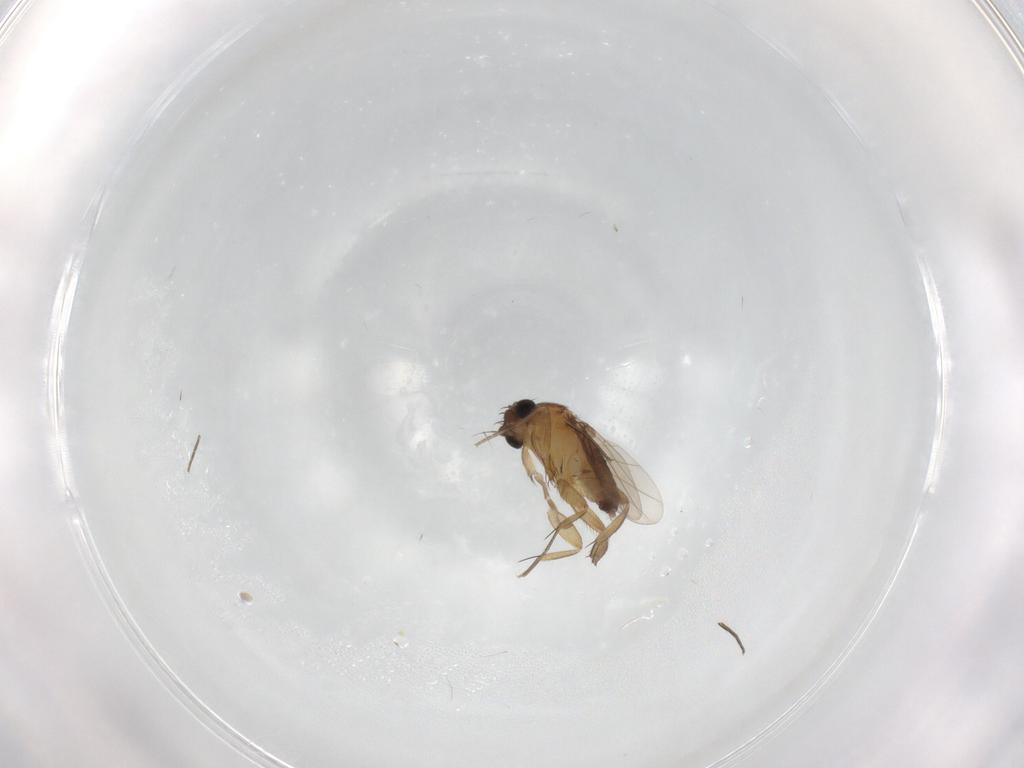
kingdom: Animalia
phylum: Arthropoda
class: Insecta
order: Diptera
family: Phoridae
